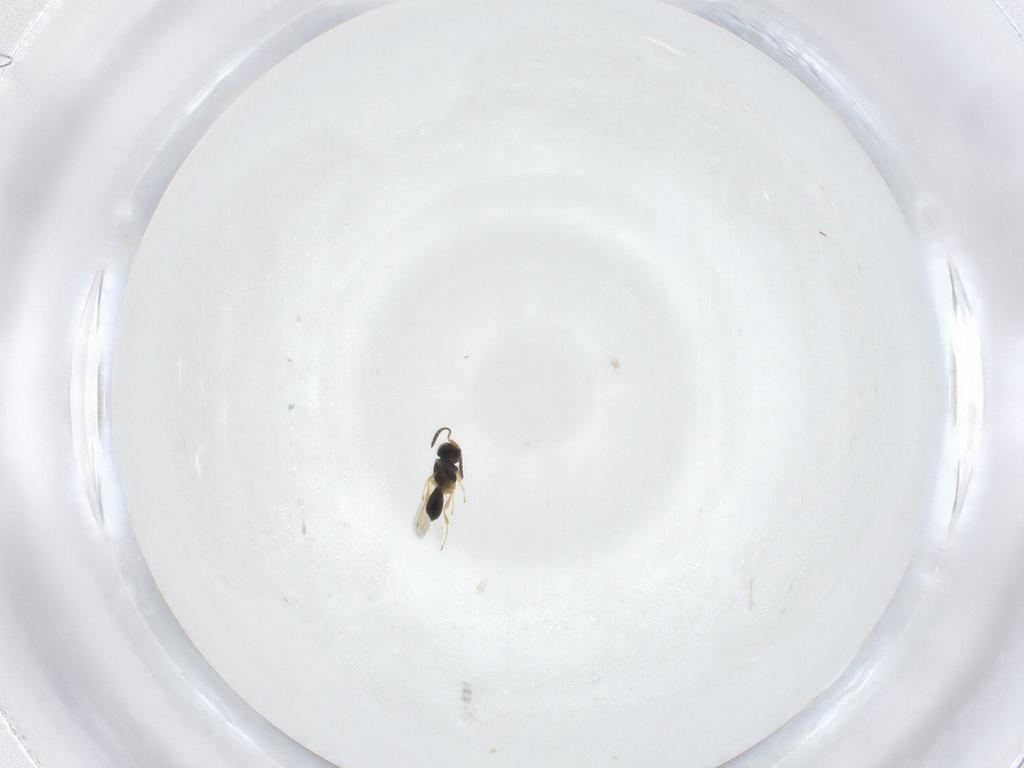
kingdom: Animalia
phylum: Arthropoda
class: Insecta
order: Hymenoptera
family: Scelionidae
